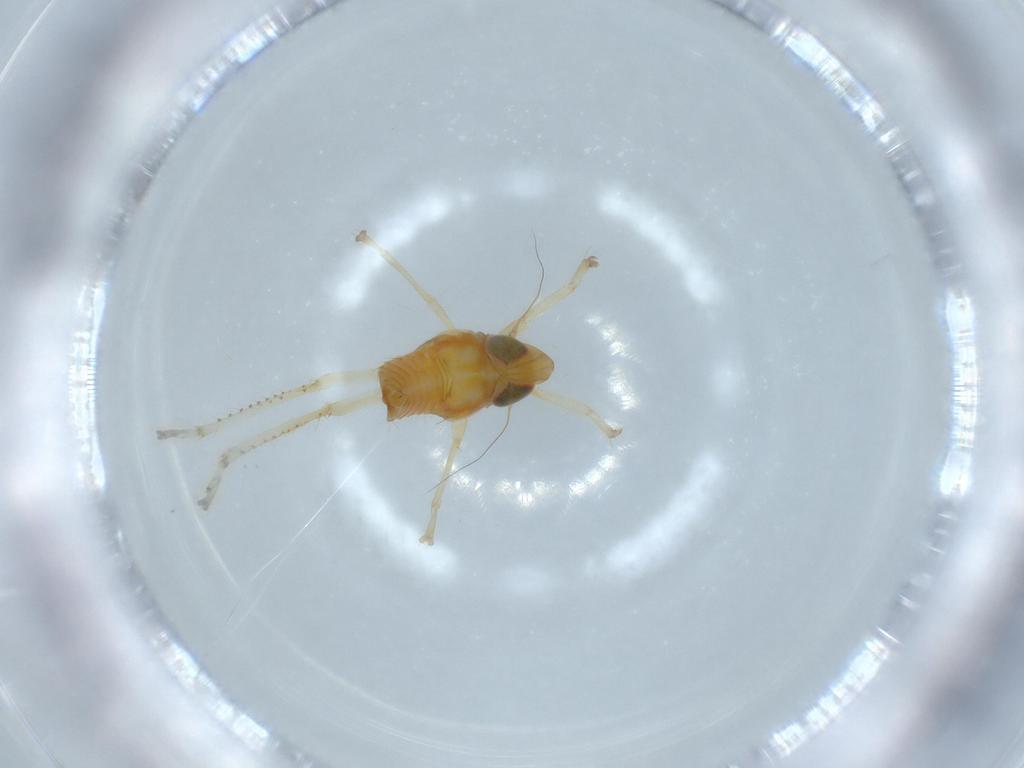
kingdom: Animalia
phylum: Arthropoda
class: Insecta
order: Hemiptera
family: Cicadellidae
